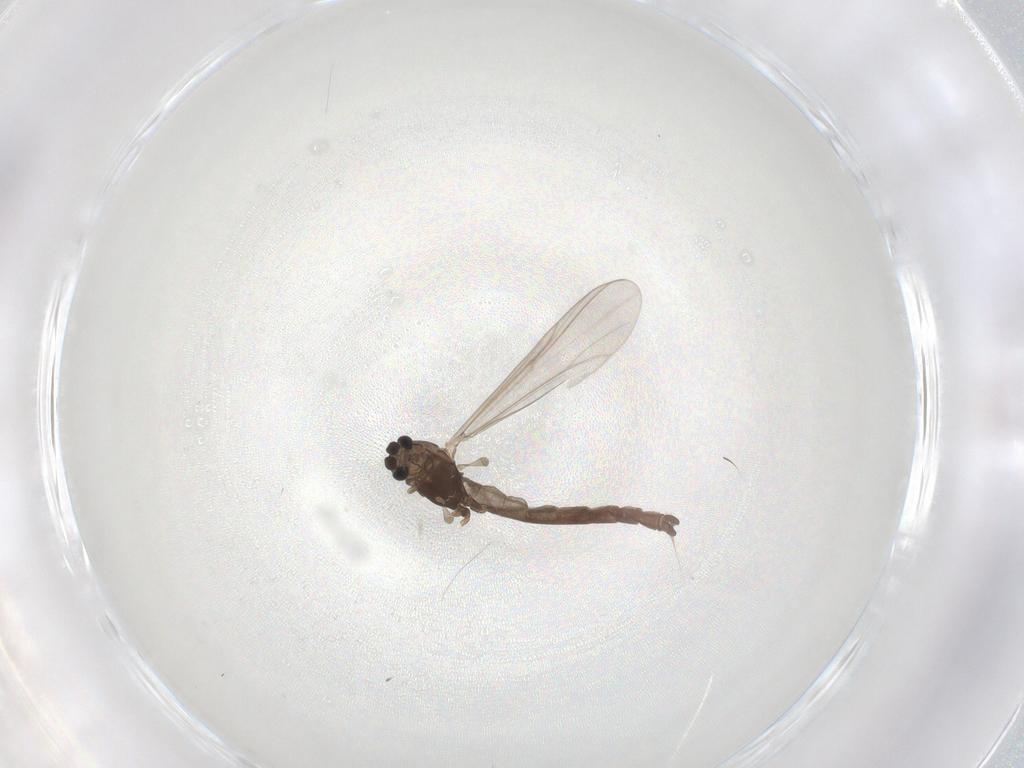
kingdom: Animalia
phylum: Arthropoda
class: Insecta
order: Diptera
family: Chironomidae
